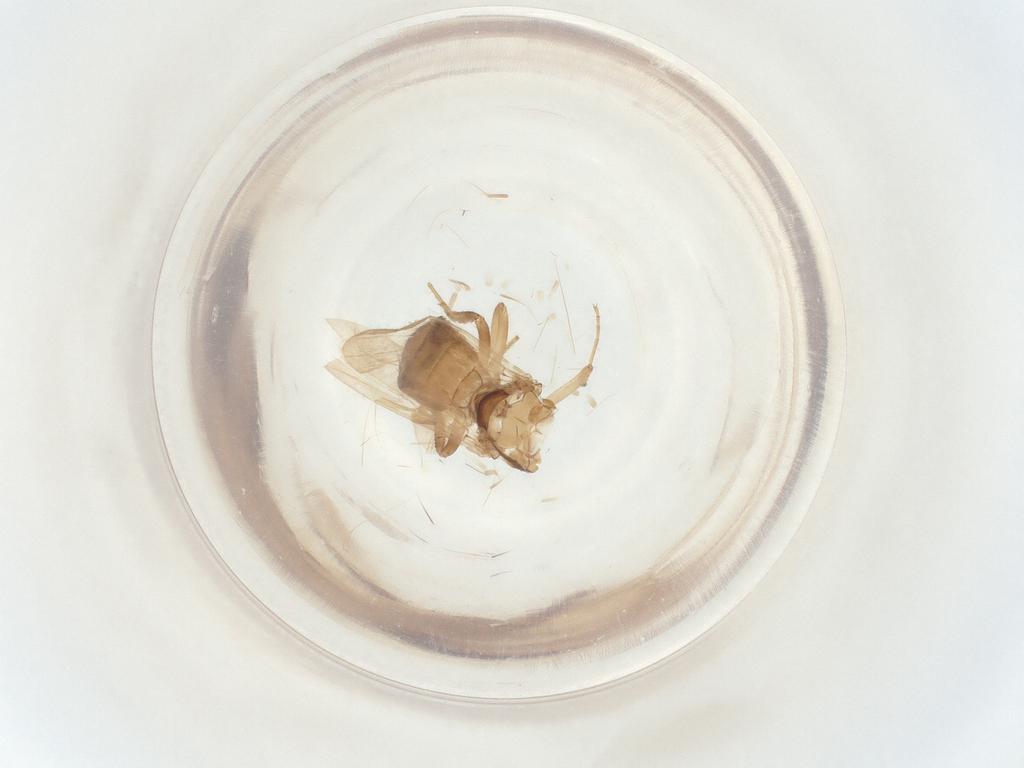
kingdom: Animalia
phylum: Arthropoda
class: Insecta
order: Diptera
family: Ceratopogonidae
